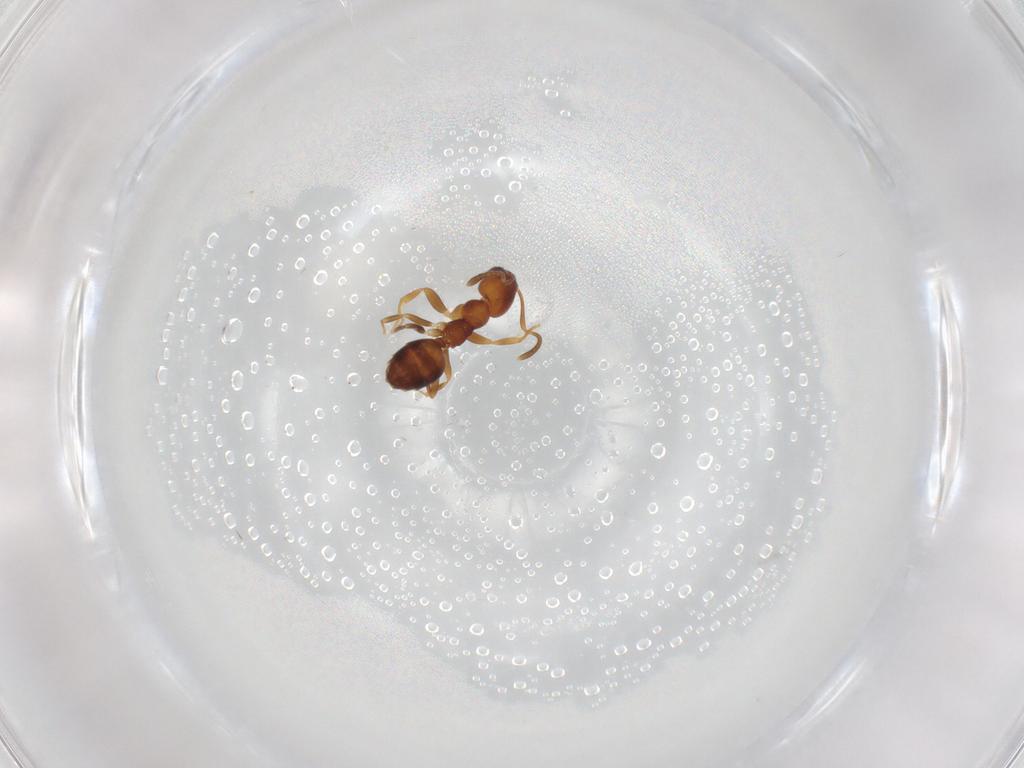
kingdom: Animalia
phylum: Arthropoda
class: Insecta
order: Hymenoptera
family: Formicidae
